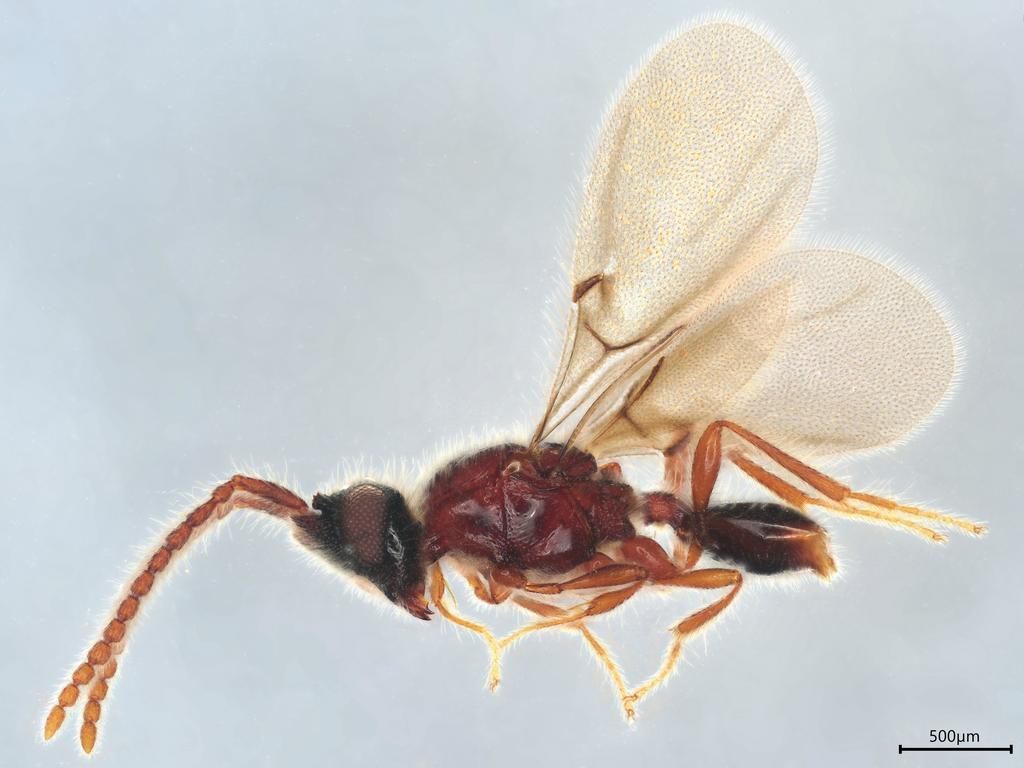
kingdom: Animalia
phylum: Arthropoda
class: Insecta
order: Hymenoptera
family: Diapriidae
